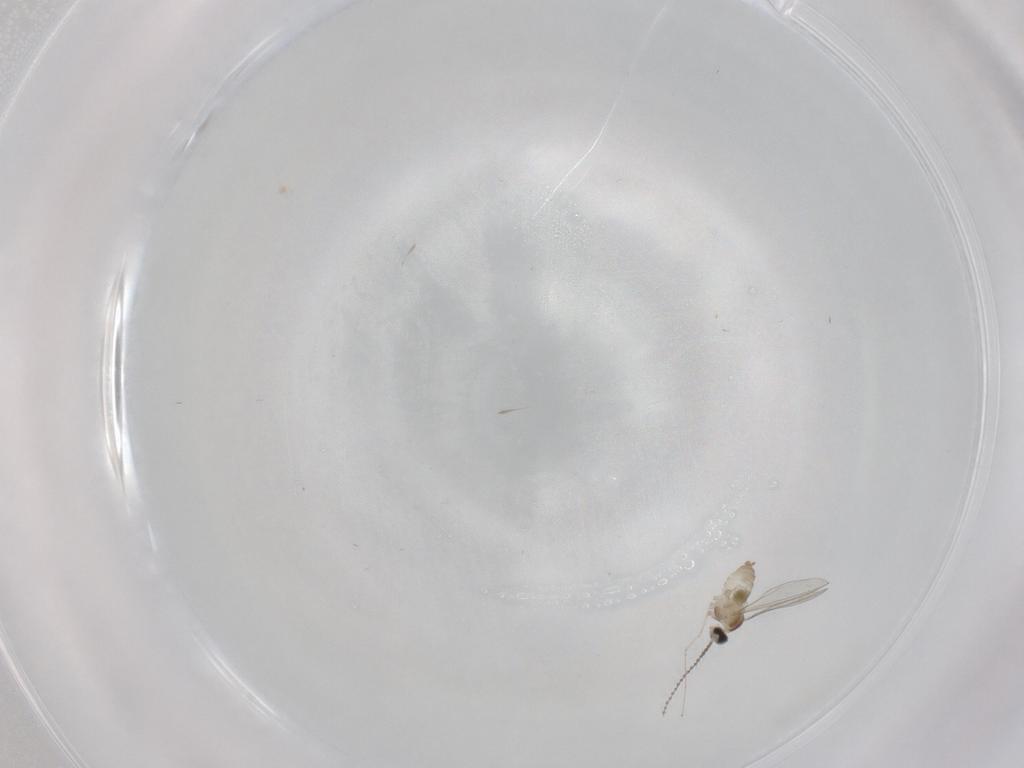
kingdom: Animalia
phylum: Arthropoda
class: Insecta
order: Diptera
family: Cecidomyiidae
